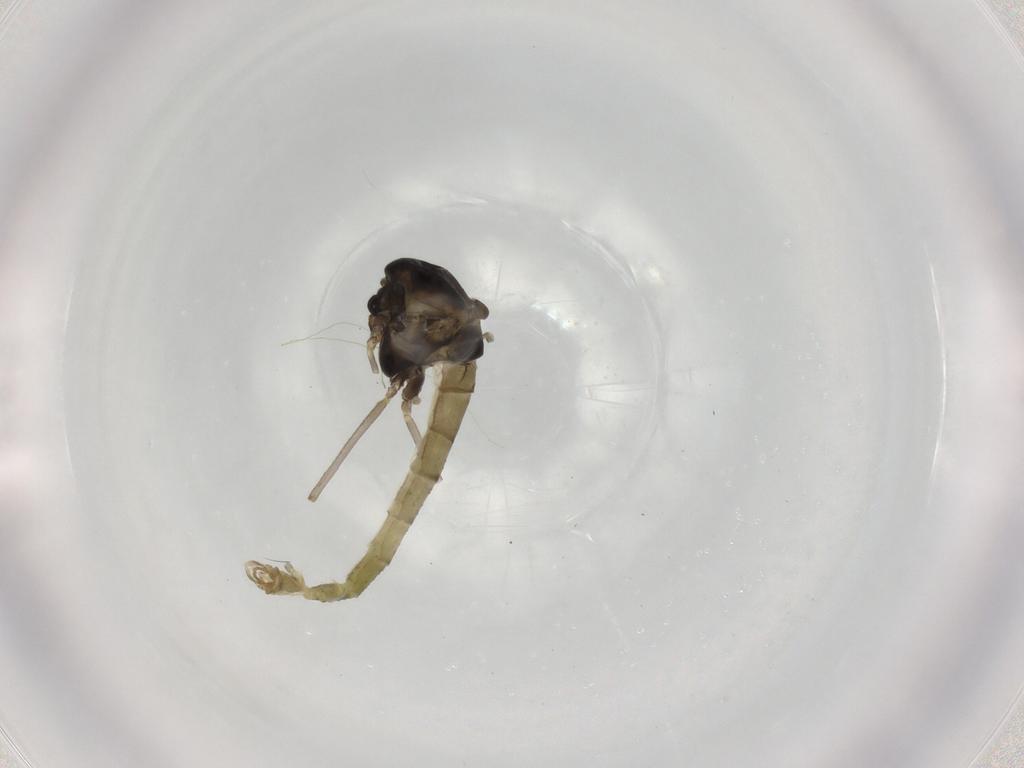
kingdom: Animalia
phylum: Arthropoda
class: Insecta
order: Diptera
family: Chironomidae
